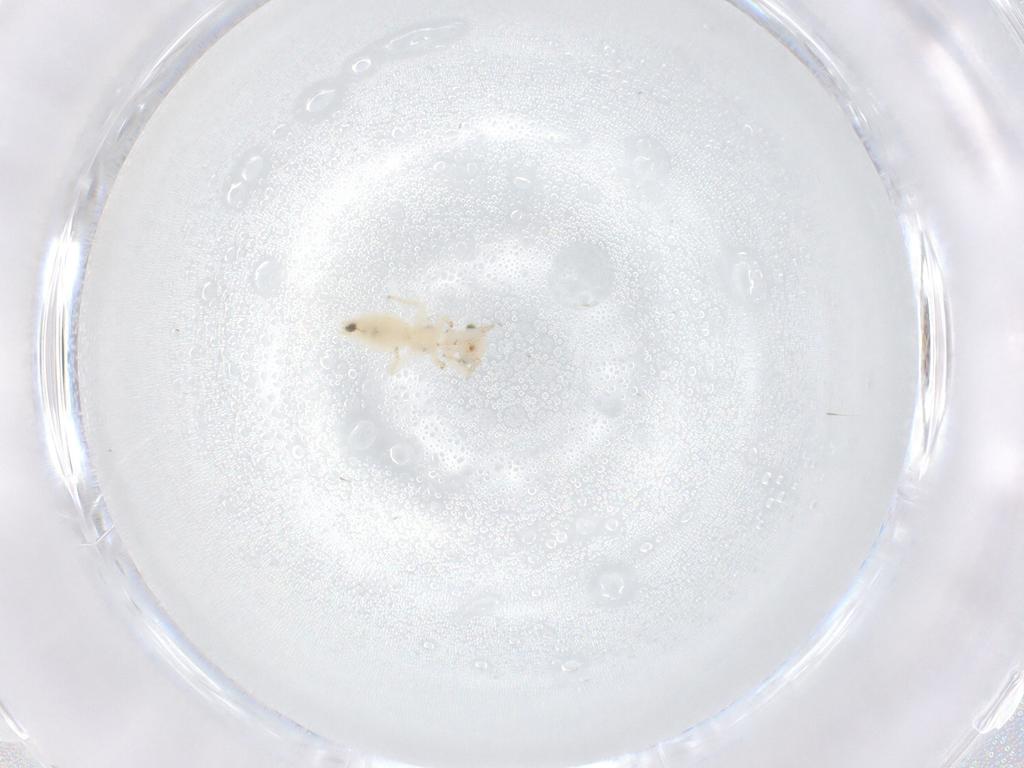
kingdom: Animalia
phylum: Arthropoda
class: Insecta
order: Psocodea
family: Lepidopsocidae
